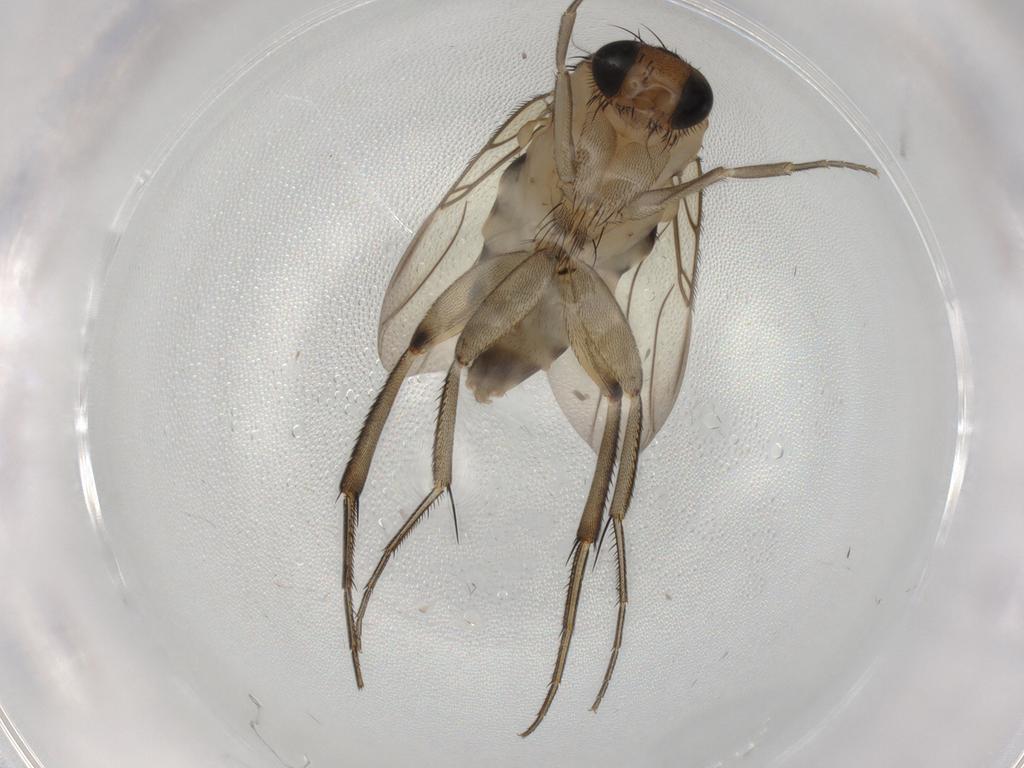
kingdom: Animalia
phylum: Arthropoda
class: Insecta
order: Diptera
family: Phoridae
